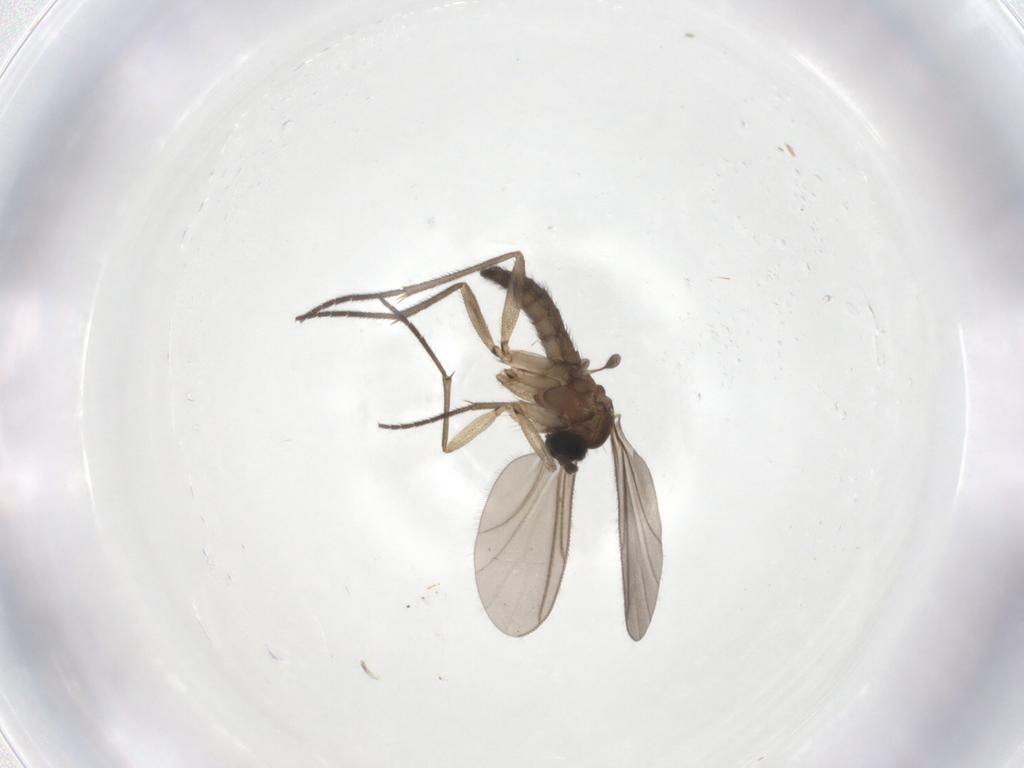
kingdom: Animalia
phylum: Arthropoda
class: Insecta
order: Diptera
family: Sciaridae
